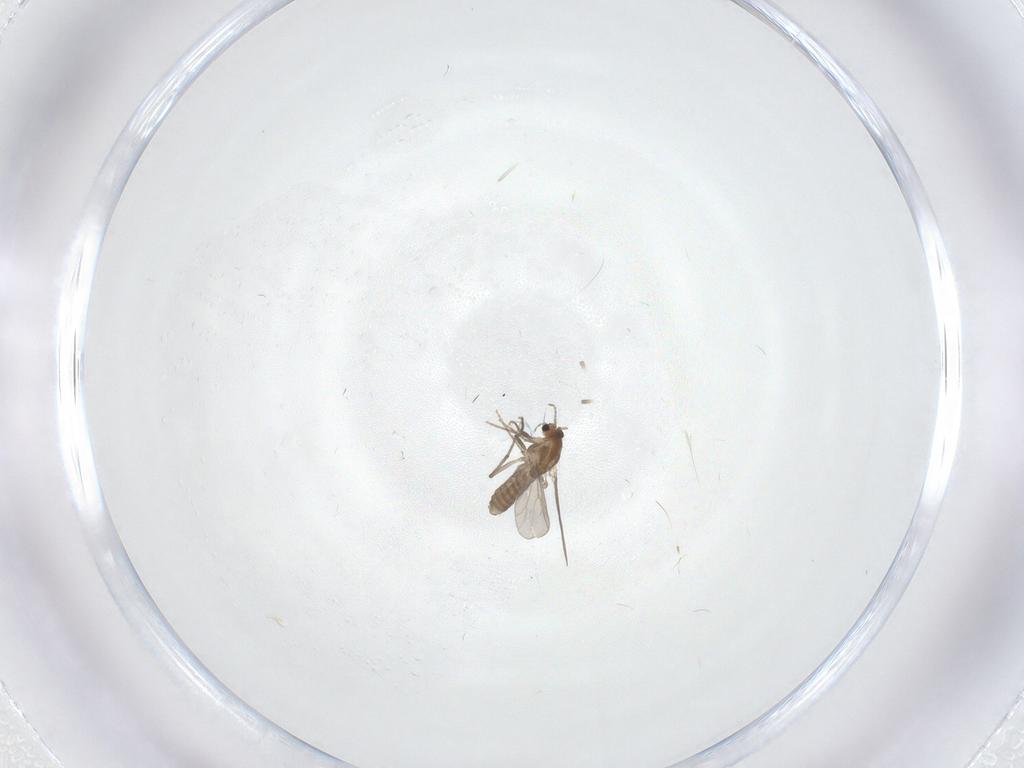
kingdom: Animalia
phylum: Arthropoda
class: Insecta
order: Diptera
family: Chironomidae
